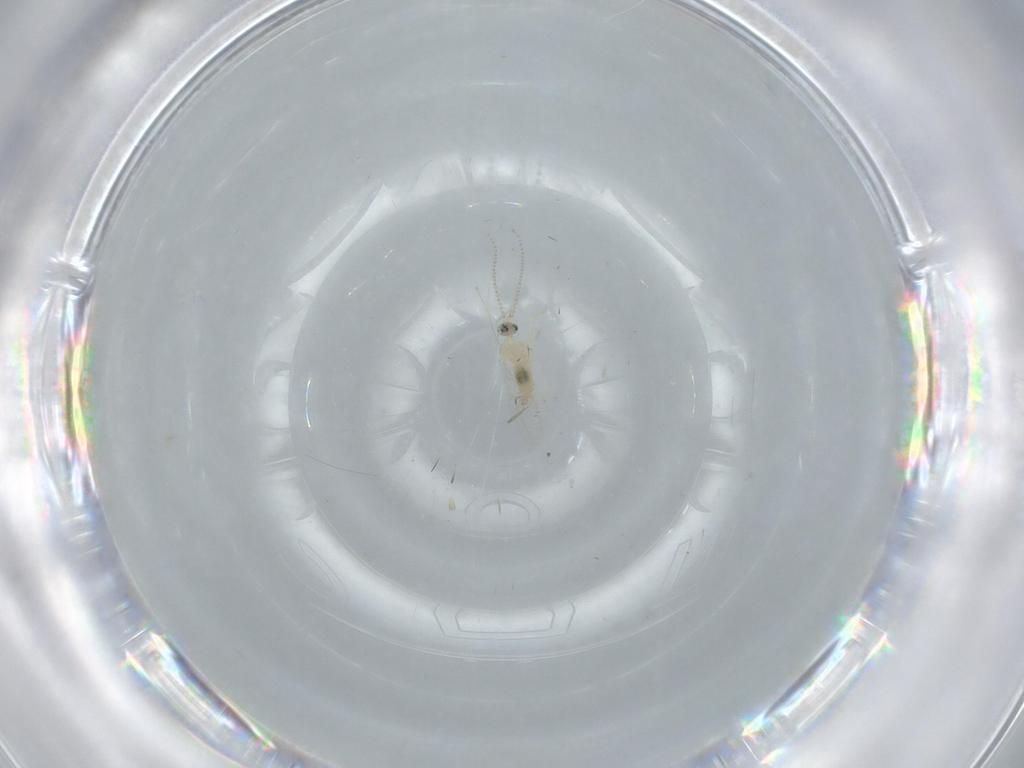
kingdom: Animalia
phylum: Arthropoda
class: Insecta
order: Diptera
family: Cecidomyiidae
